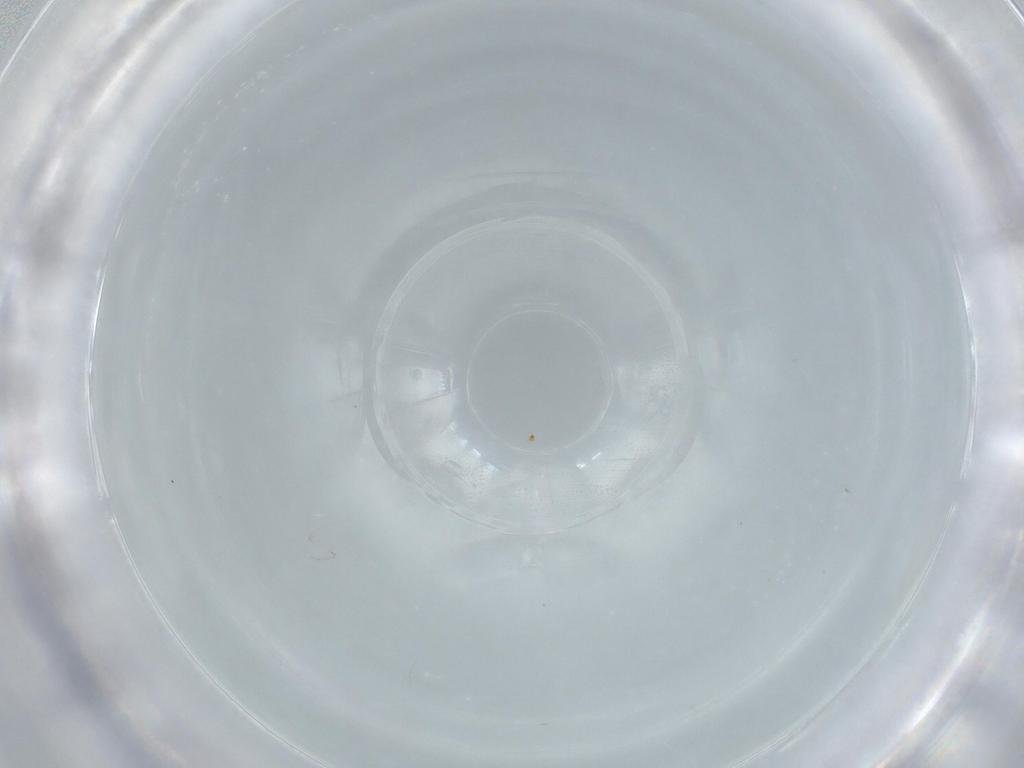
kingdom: Animalia
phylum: Arthropoda
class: Insecta
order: Diptera
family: Cecidomyiidae
